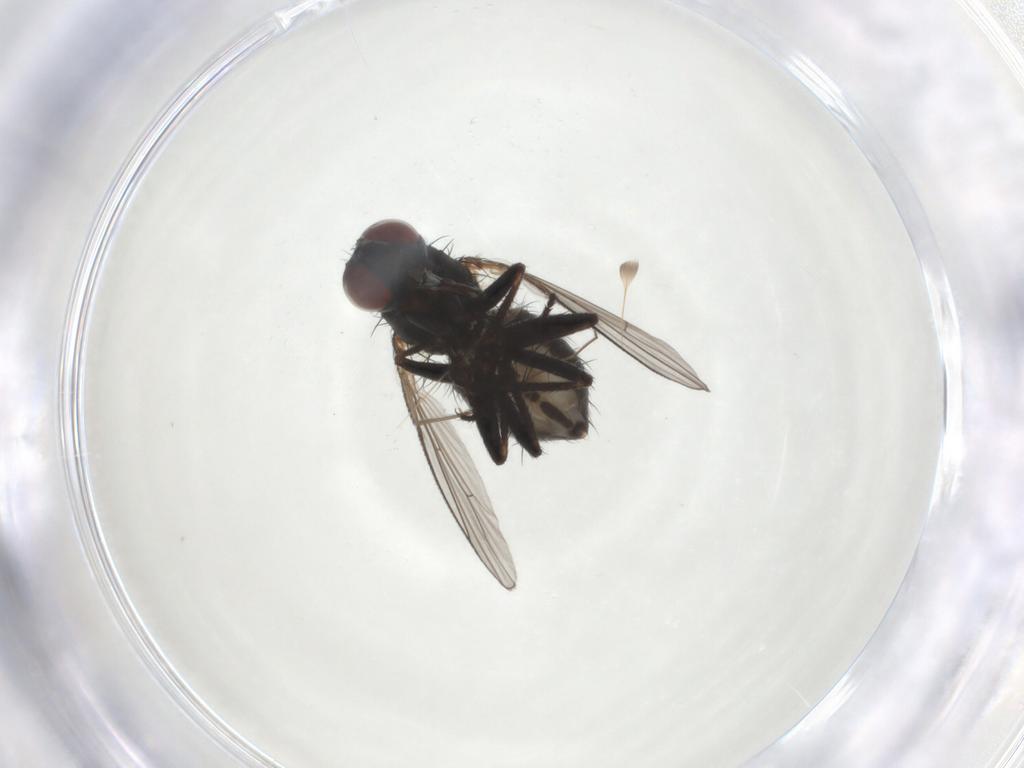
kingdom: Animalia
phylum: Arthropoda
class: Insecta
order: Diptera
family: Muscidae
